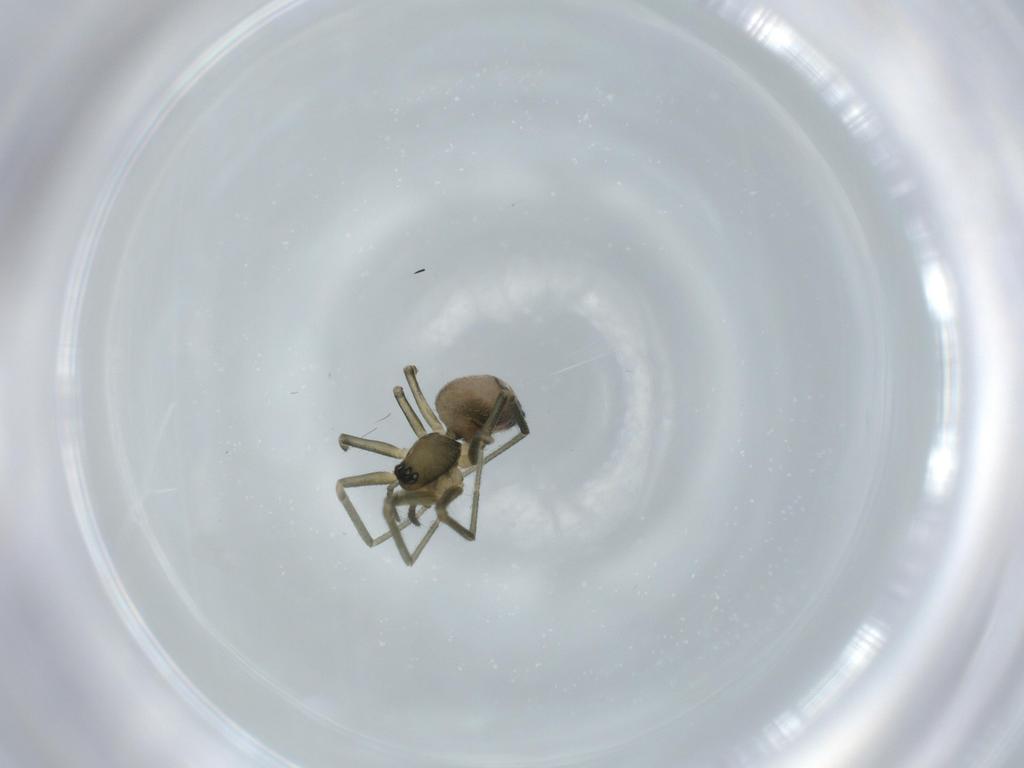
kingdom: Animalia
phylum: Arthropoda
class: Arachnida
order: Araneae
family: Linyphiidae
